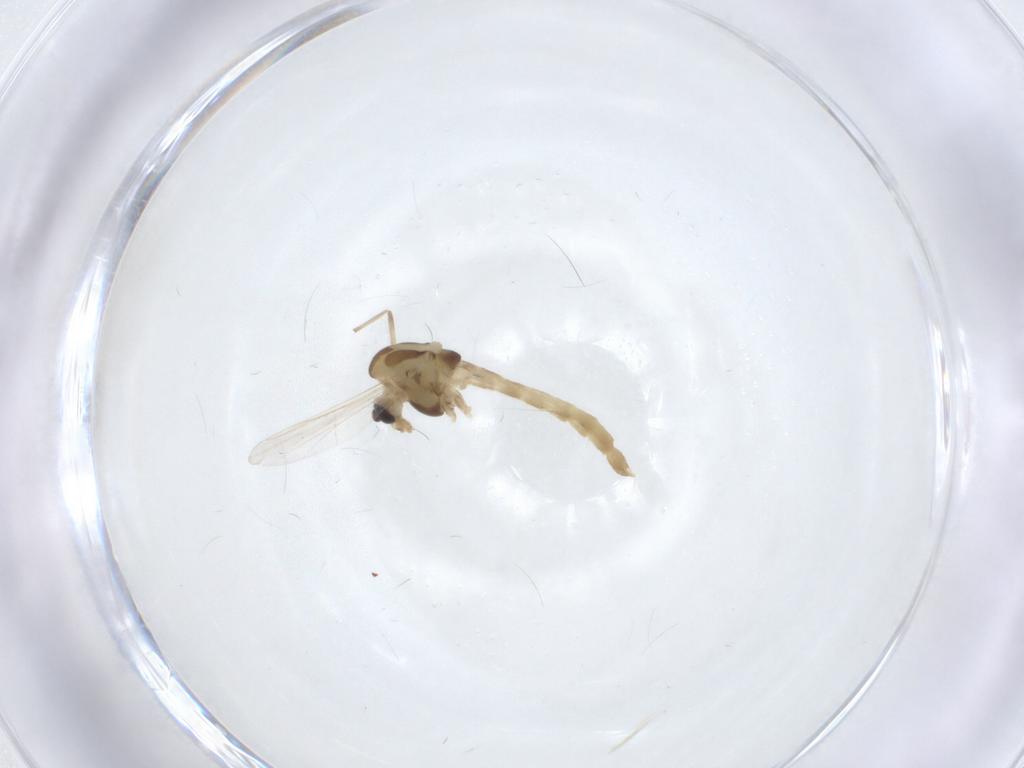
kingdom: Animalia
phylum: Arthropoda
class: Insecta
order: Diptera
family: Chironomidae
